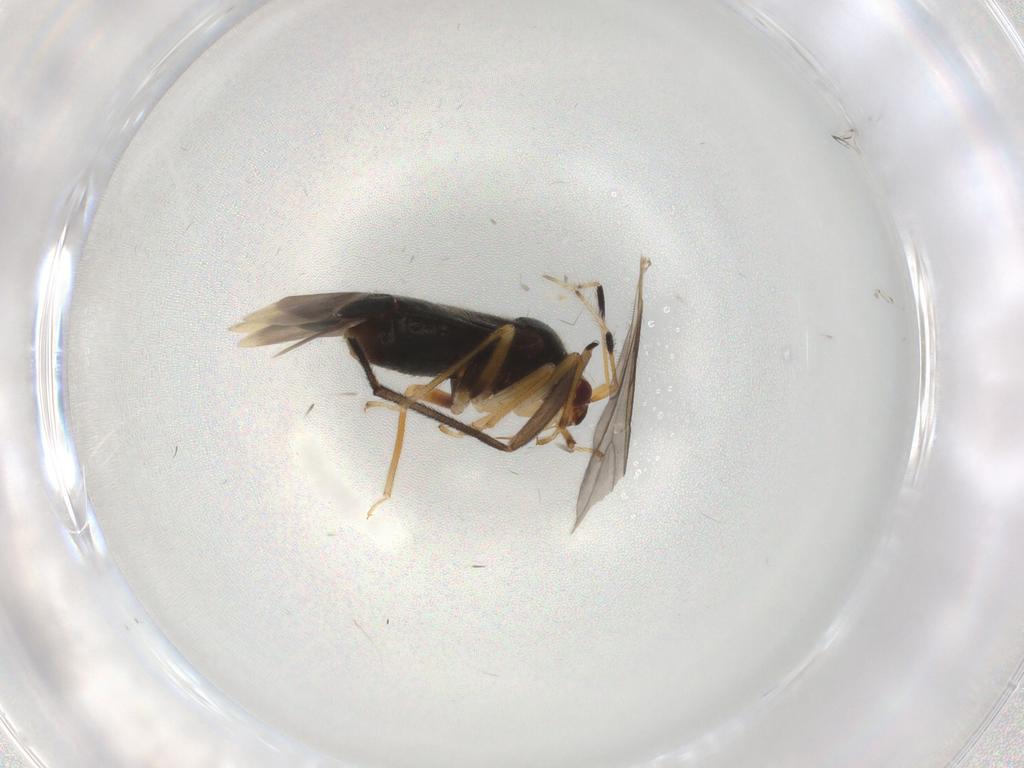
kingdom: Animalia
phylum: Arthropoda
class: Insecta
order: Hemiptera
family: Miridae
